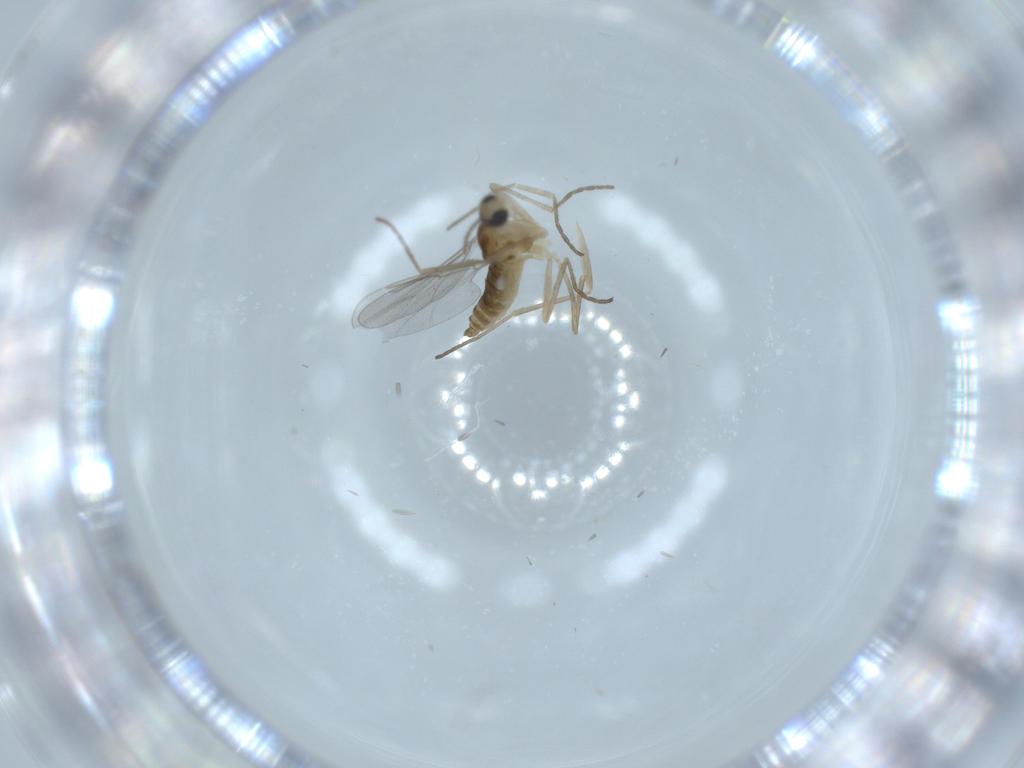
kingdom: Animalia
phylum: Arthropoda
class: Insecta
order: Diptera
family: Cecidomyiidae
